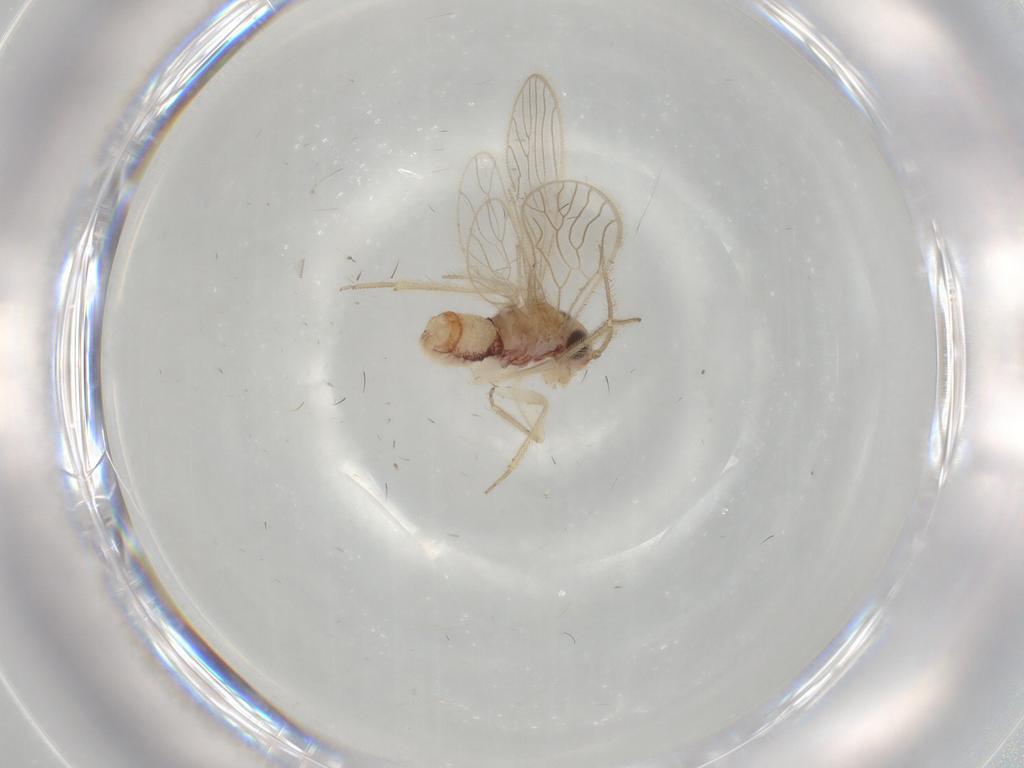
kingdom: Animalia
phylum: Arthropoda
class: Insecta
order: Psocodea
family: Cladiopsocidae
